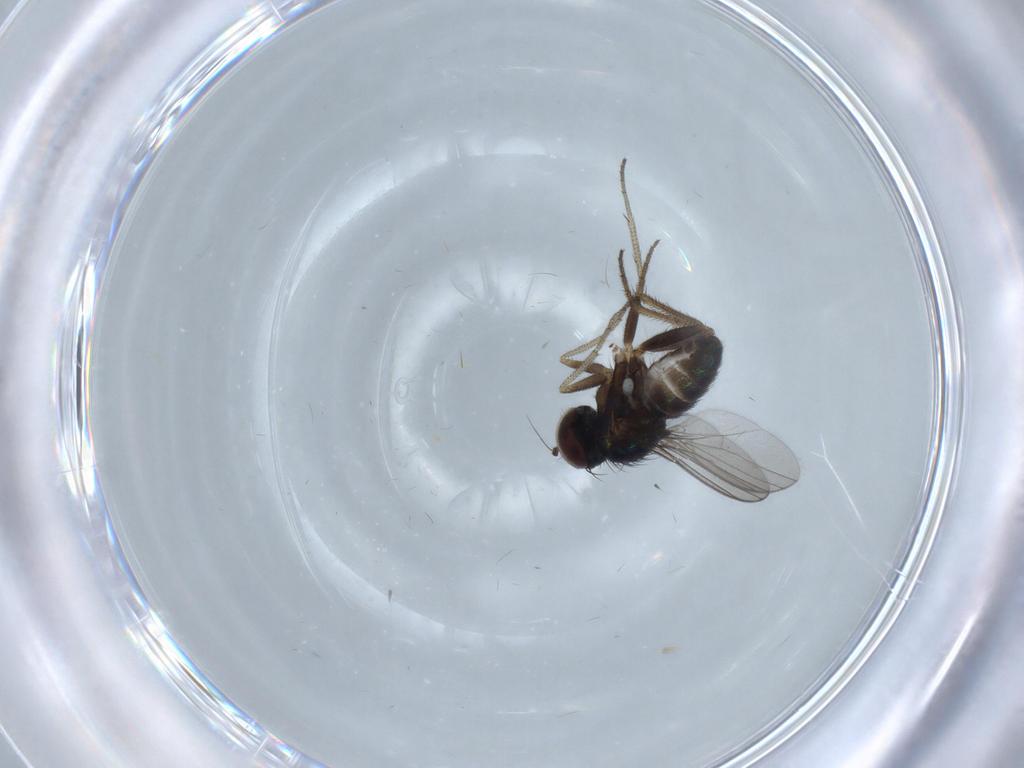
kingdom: Animalia
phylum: Arthropoda
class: Insecta
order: Diptera
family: Dolichopodidae
